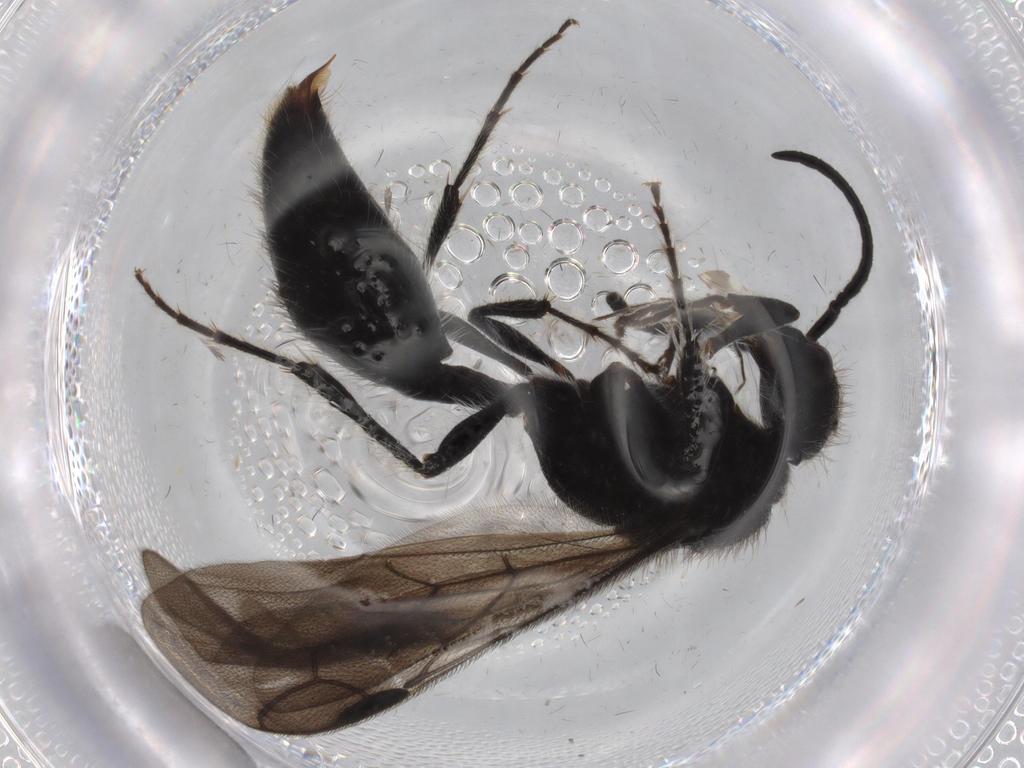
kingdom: Animalia
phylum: Arthropoda
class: Insecta
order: Hymenoptera
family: Mutillidae
